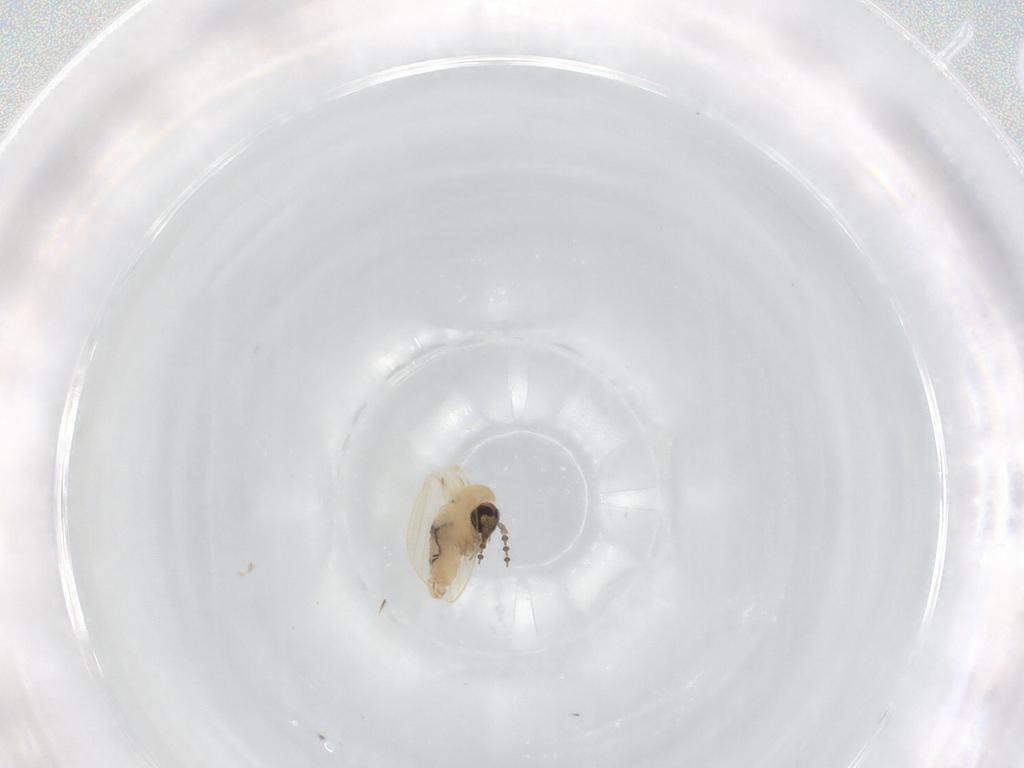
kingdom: Animalia
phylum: Arthropoda
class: Insecta
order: Diptera
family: Psychodidae
